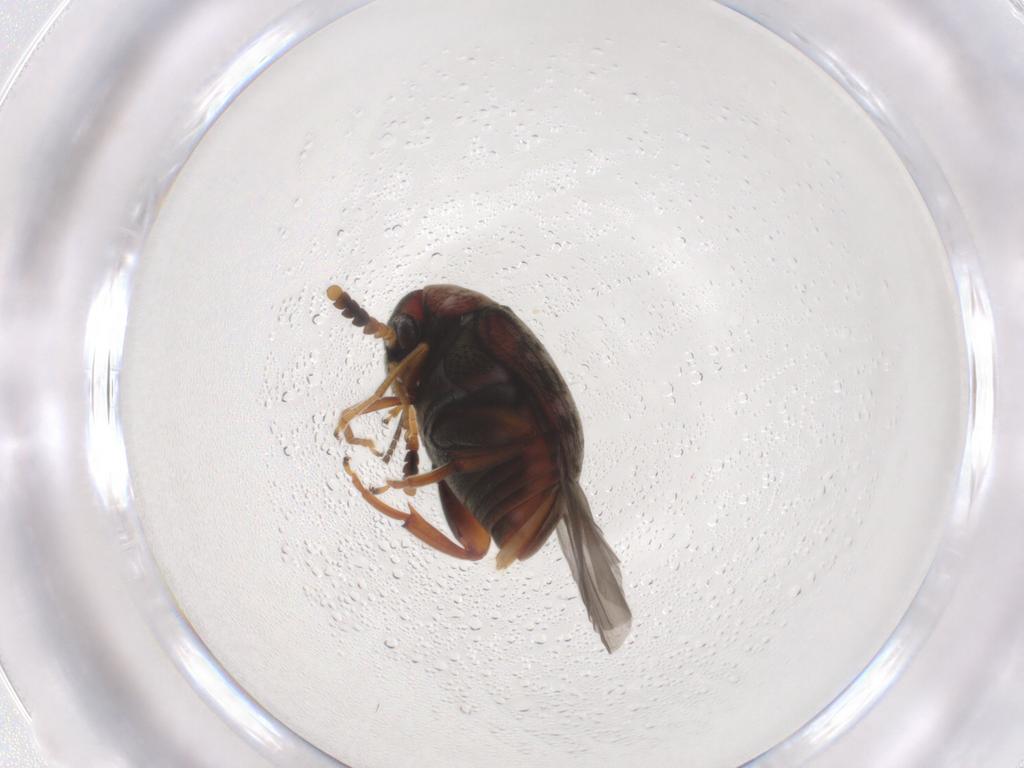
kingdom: Animalia
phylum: Arthropoda
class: Insecta
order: Coleoptera
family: Chrysomelidae
